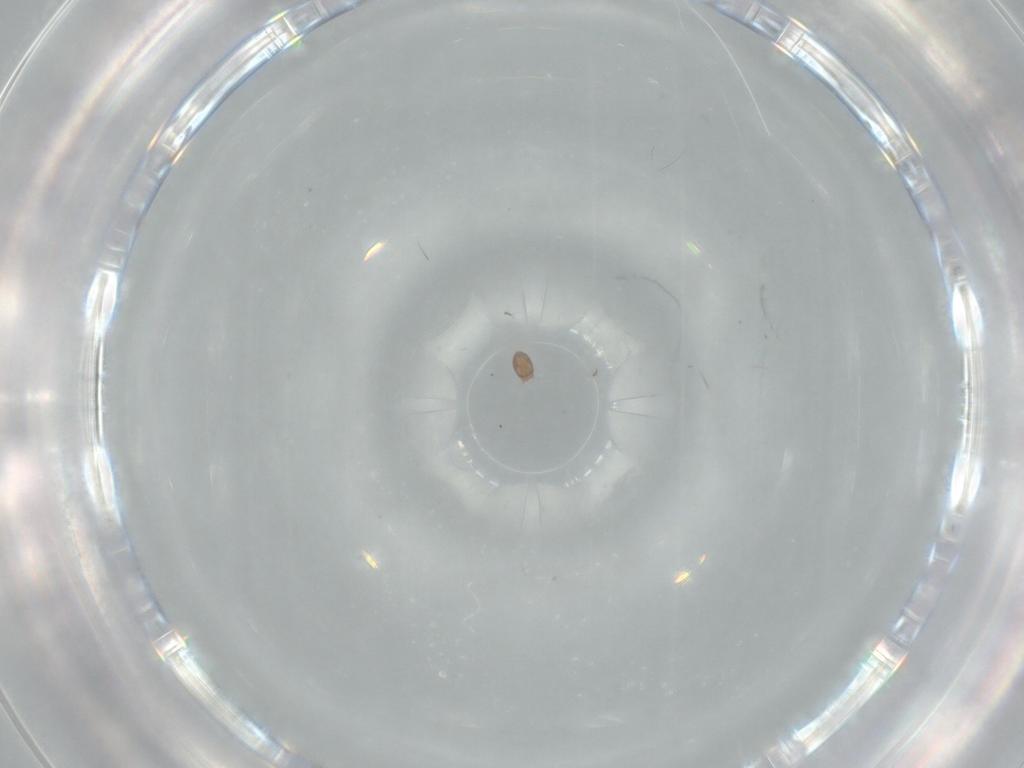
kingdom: Animalia
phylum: Arthropoda
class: Arachnida
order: Sarcoptiformes
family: Acaridae
